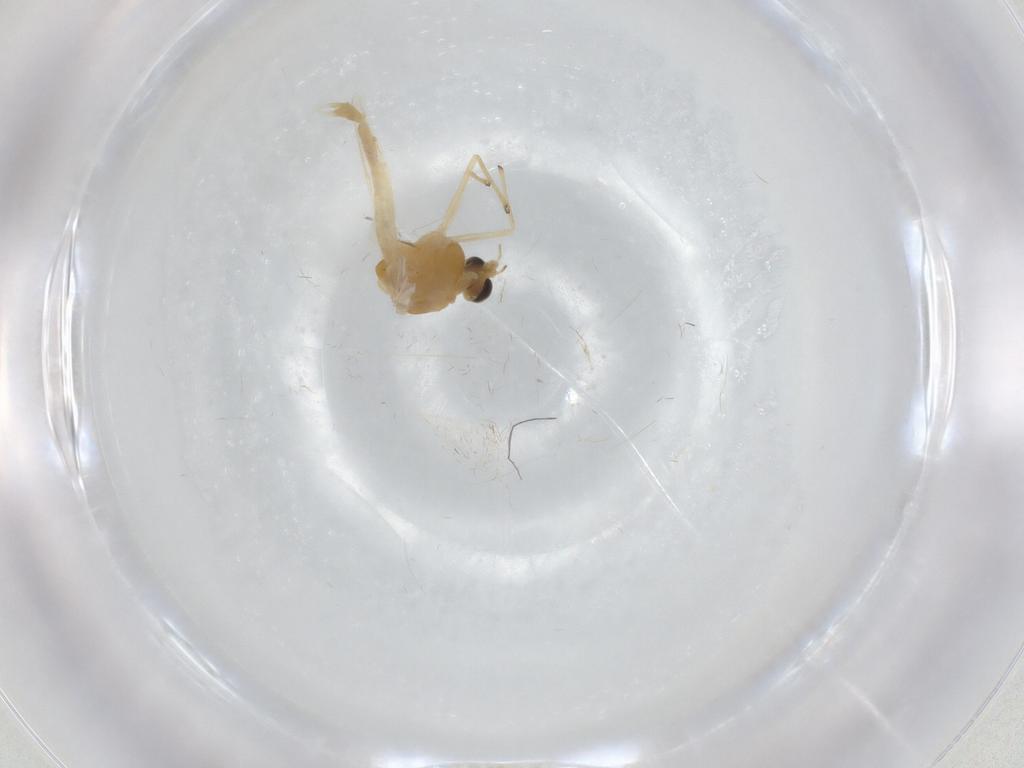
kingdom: Animalia
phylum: Arthropoda
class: Insecta
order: Diptera
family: Chironomidae
